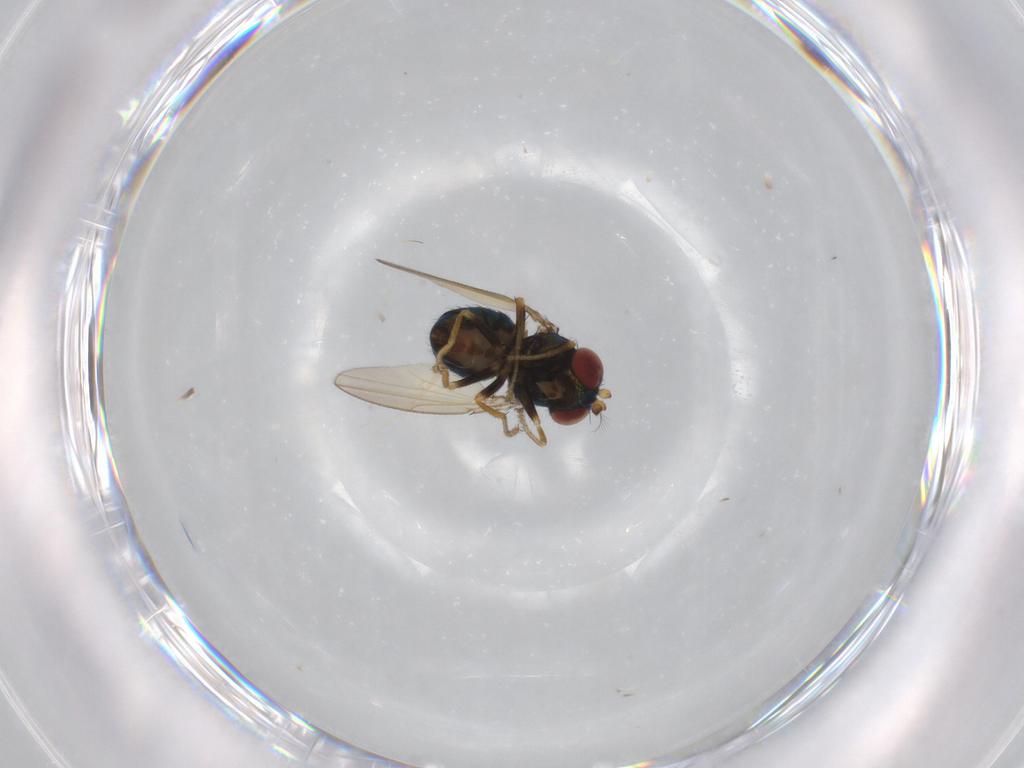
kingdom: Animalia
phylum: Arthropoda
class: Insecta
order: Diptera
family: Ephydridae
